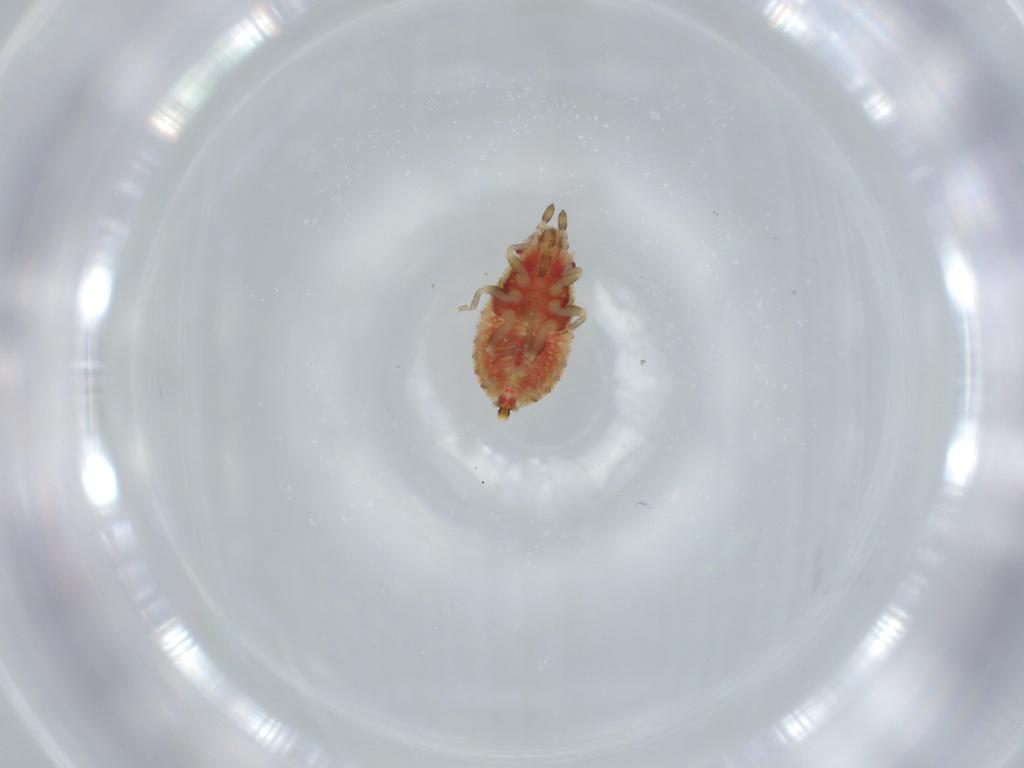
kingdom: Animalia
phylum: Arthropoda
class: Insecta
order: Hemiptera
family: Aradidae
